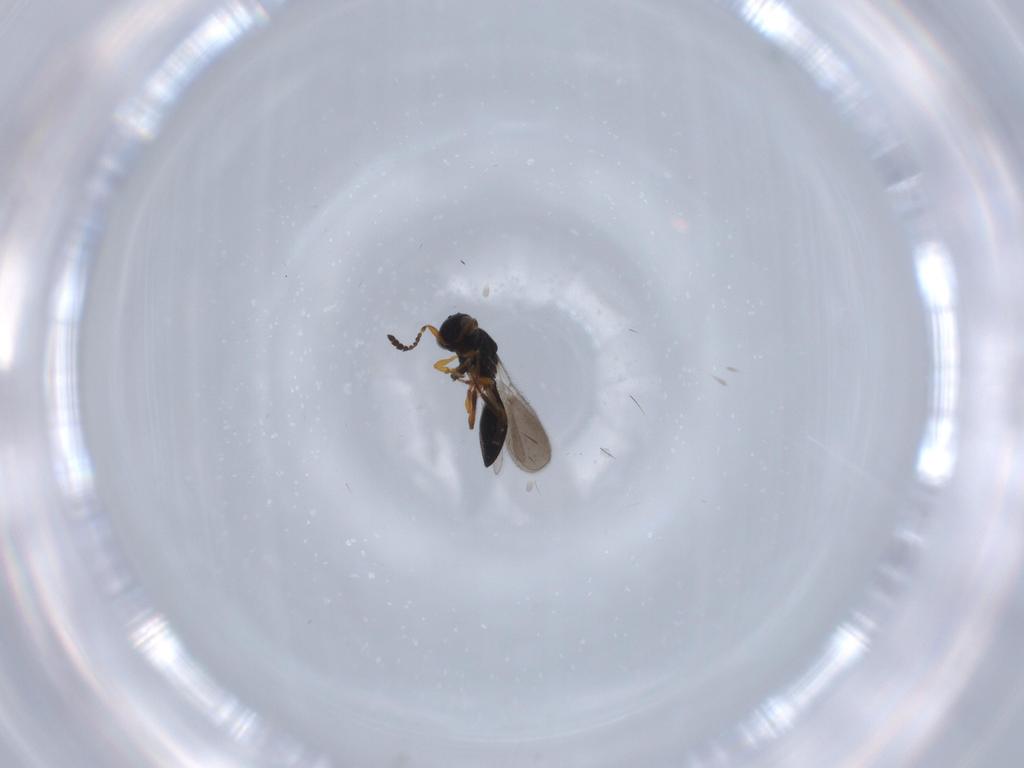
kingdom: Animalia
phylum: Arthropoda
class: Insecta
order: Hymenoptera
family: Platygastridae
